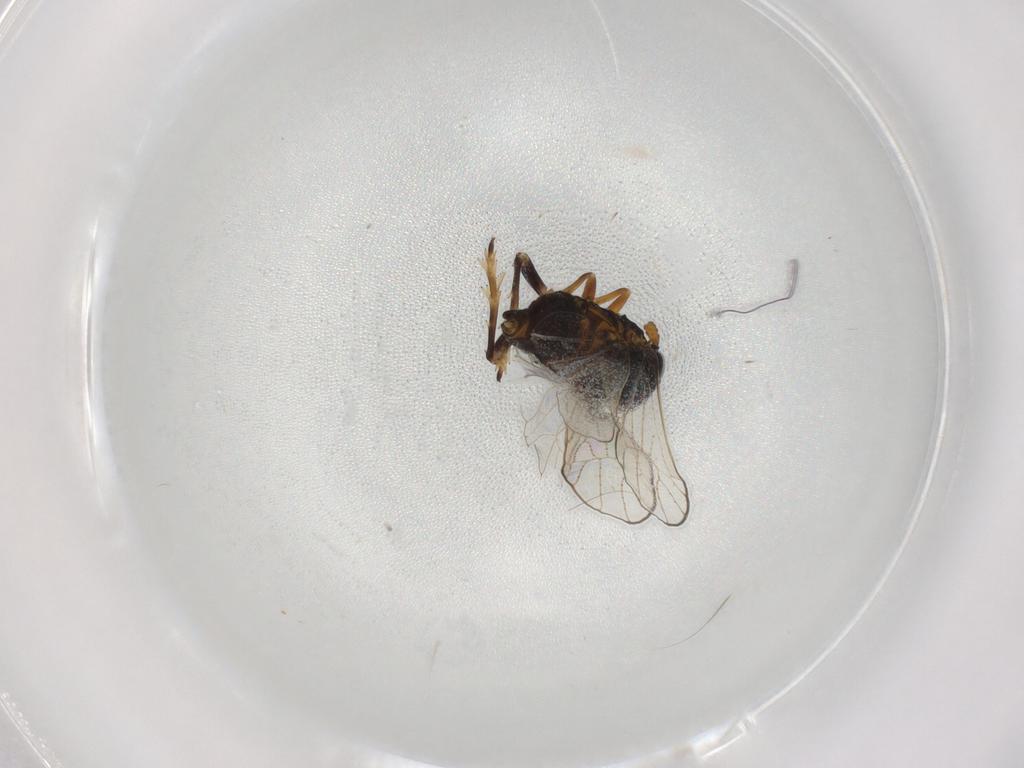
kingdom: Animalia
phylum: Arthropoda
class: Insecta
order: Hemiptera
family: Delphacidae
